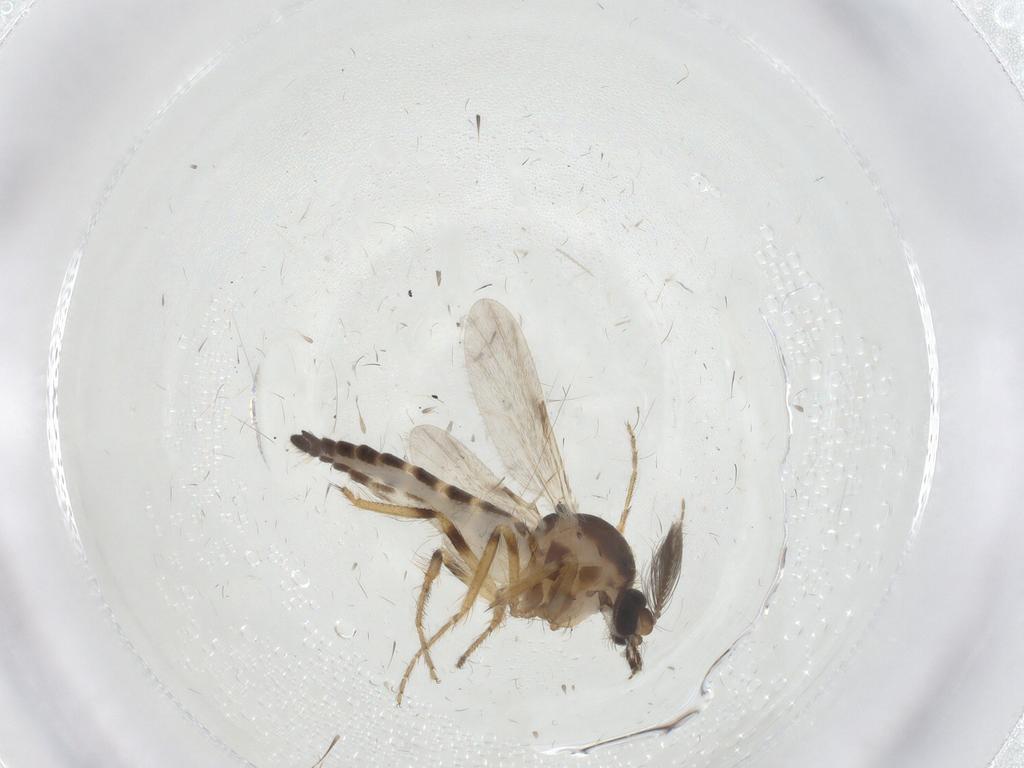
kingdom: Animalia
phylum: Arthropoda
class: Insecta
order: Diptera
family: Ceratopogonidae
